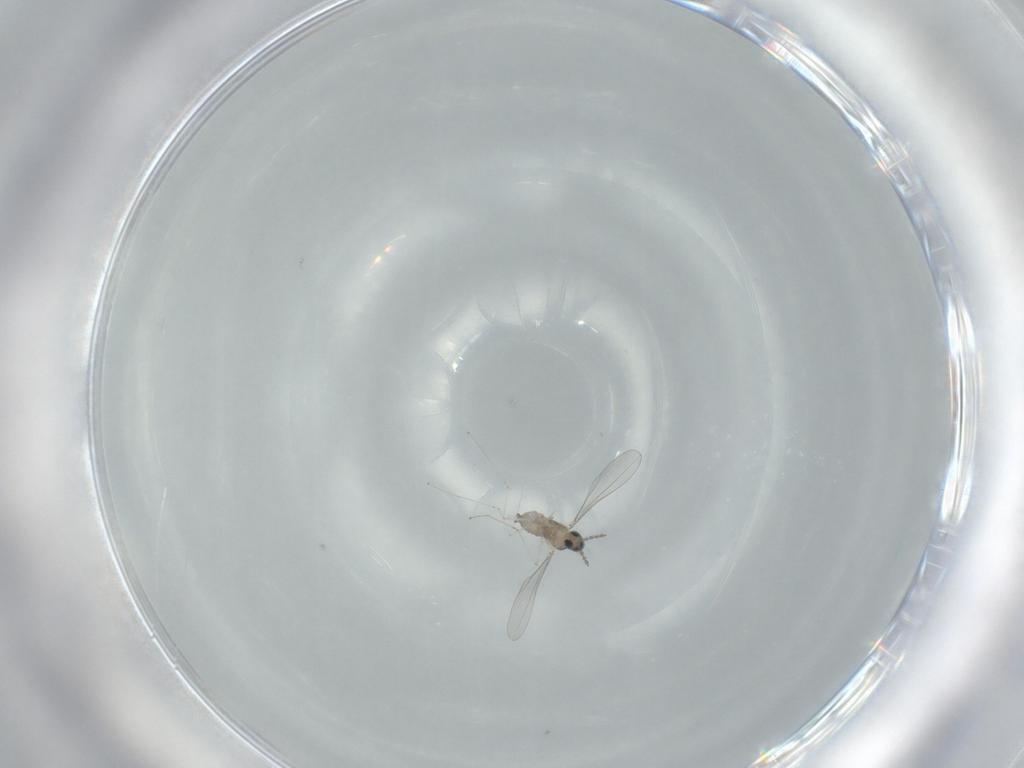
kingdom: Animalia
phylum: Arthropoda
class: Insecta
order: Diptera
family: Cecidomyiidae
